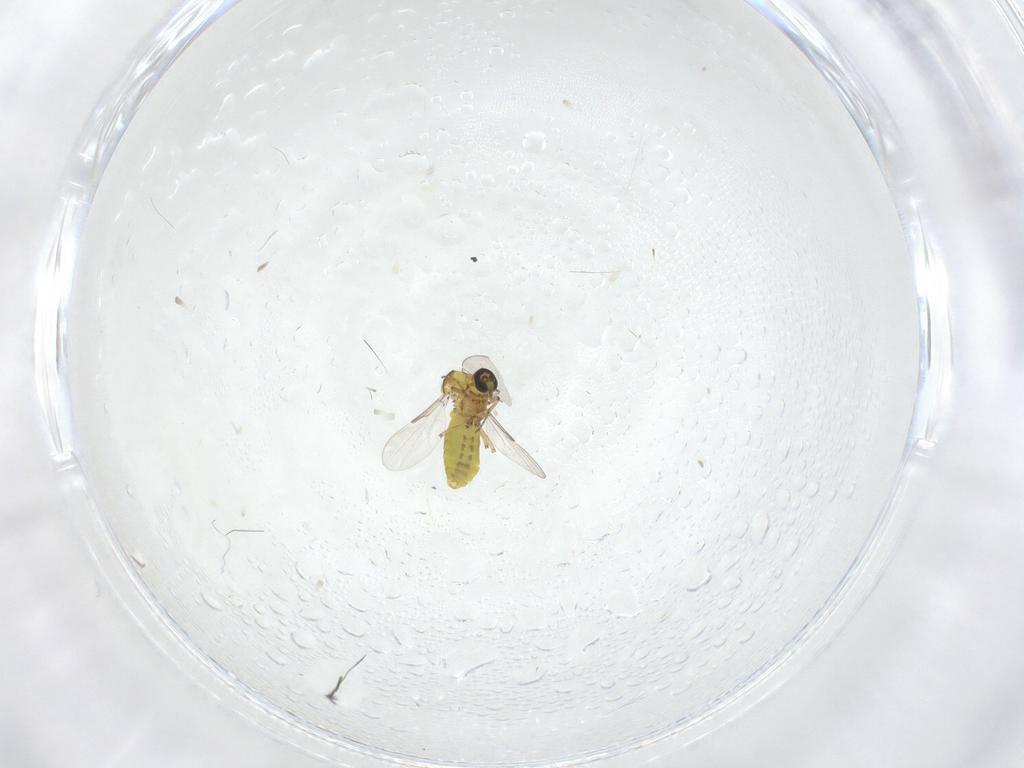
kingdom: Animalia
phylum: Arthropoda
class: Insecta
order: Diptera
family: Ceratopogonidae
